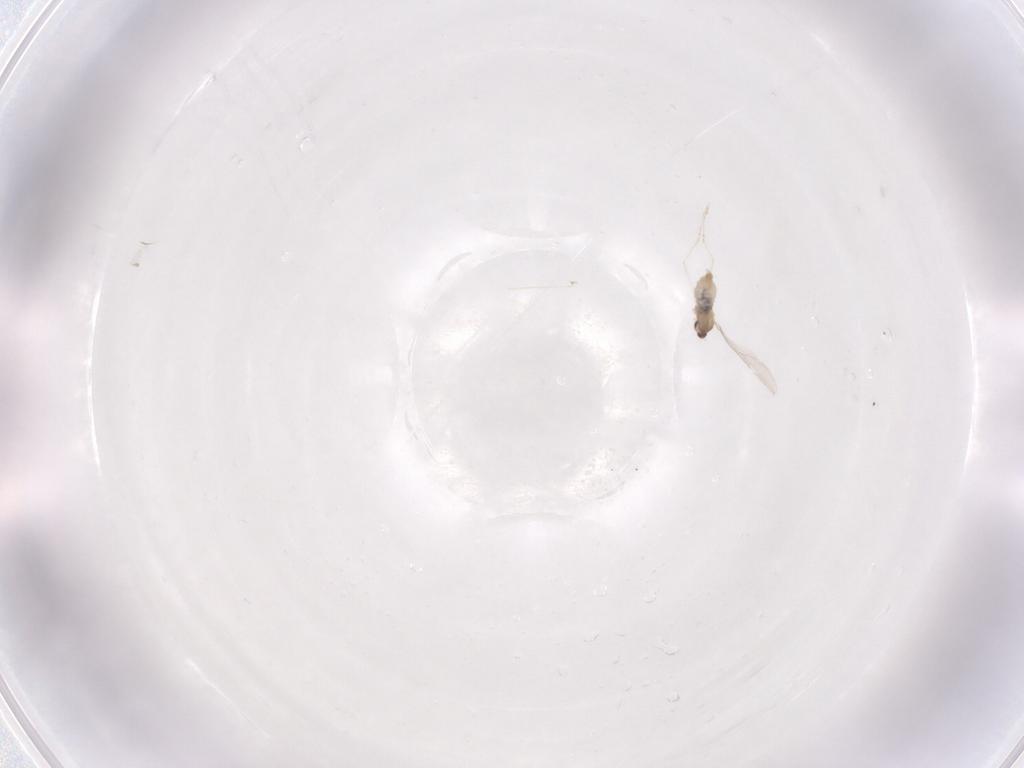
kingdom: Animalia
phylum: Arthropoda
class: Insecta
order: Diptera
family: Cecidomyiidae
